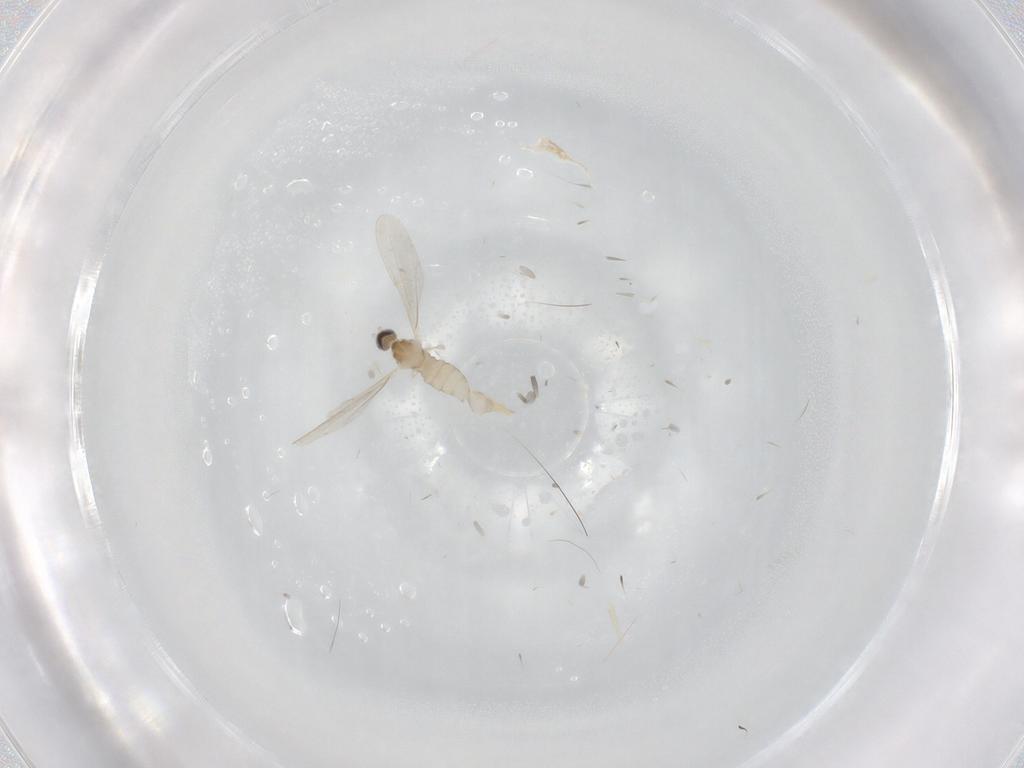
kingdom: Animalia
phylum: Arthropoda
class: Insecta
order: Diptera
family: Cecidomyiidae
